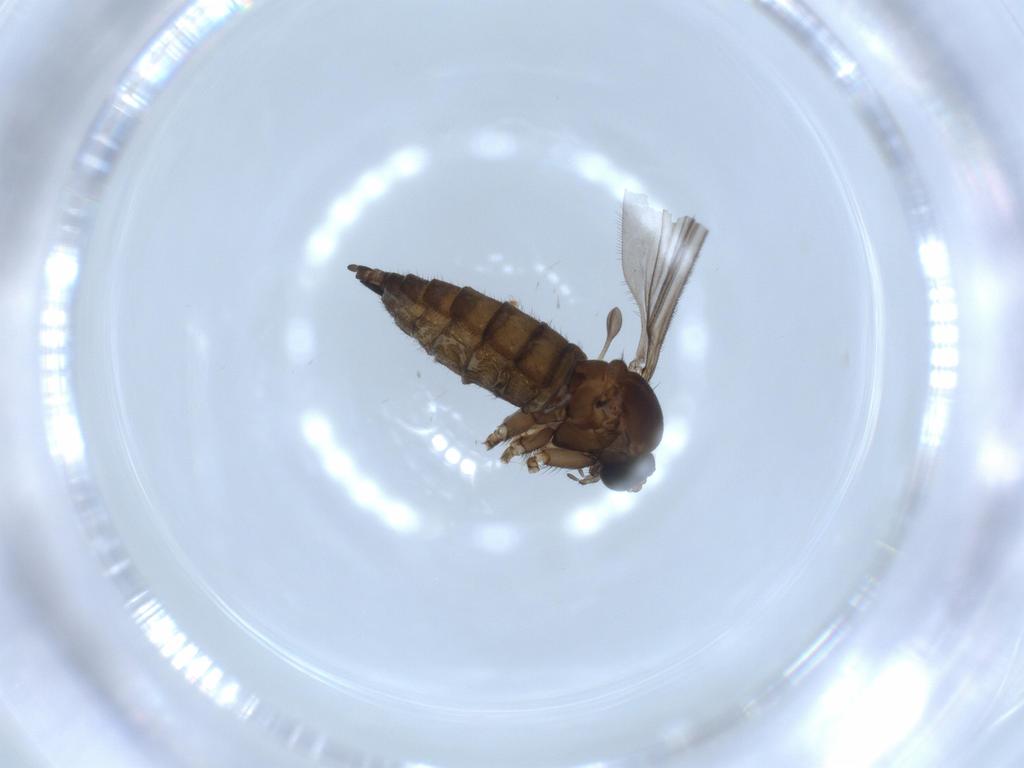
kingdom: Animalia
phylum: Arthropoda
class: Insecta
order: Diptera
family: Sciaridae
